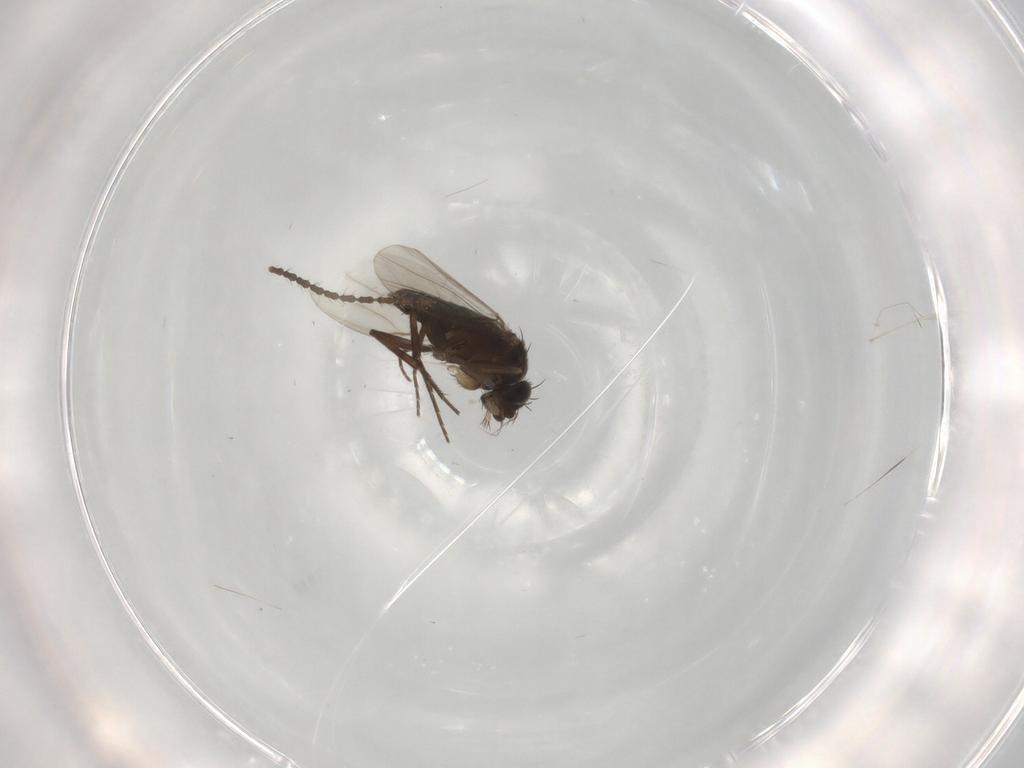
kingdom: Animalia
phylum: Arthropoda
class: Insecta
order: Diptera
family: Cecidomyiidae
